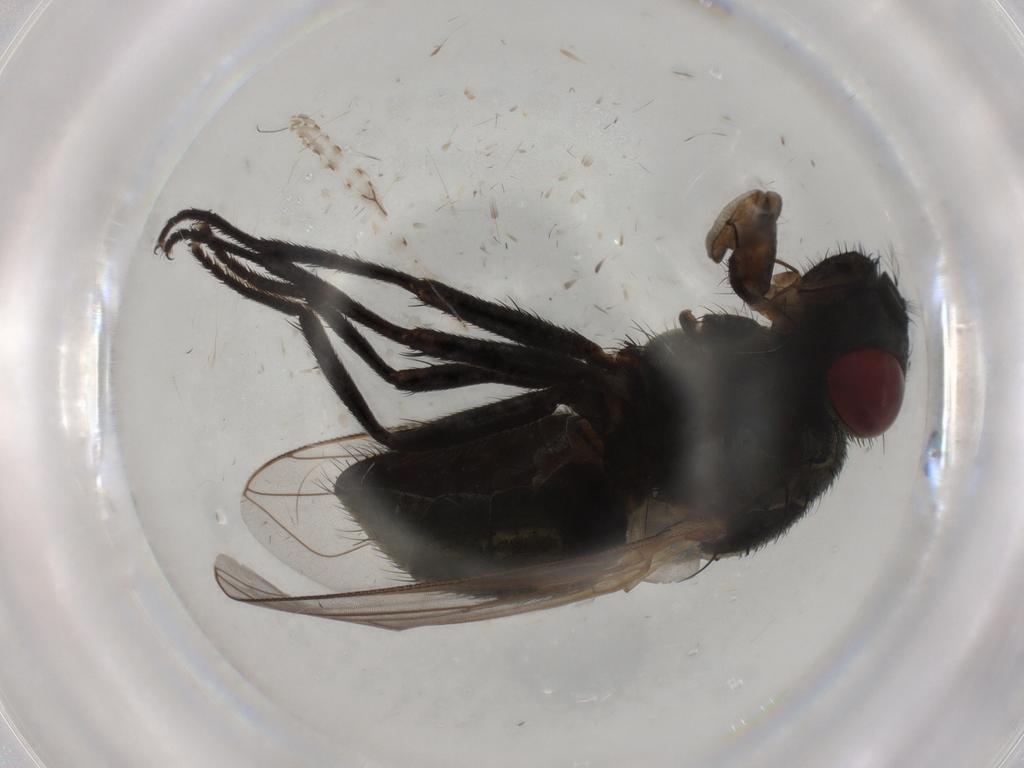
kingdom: Animalia
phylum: Arthropoda
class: Insecta
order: Diptera
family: Muscidae
